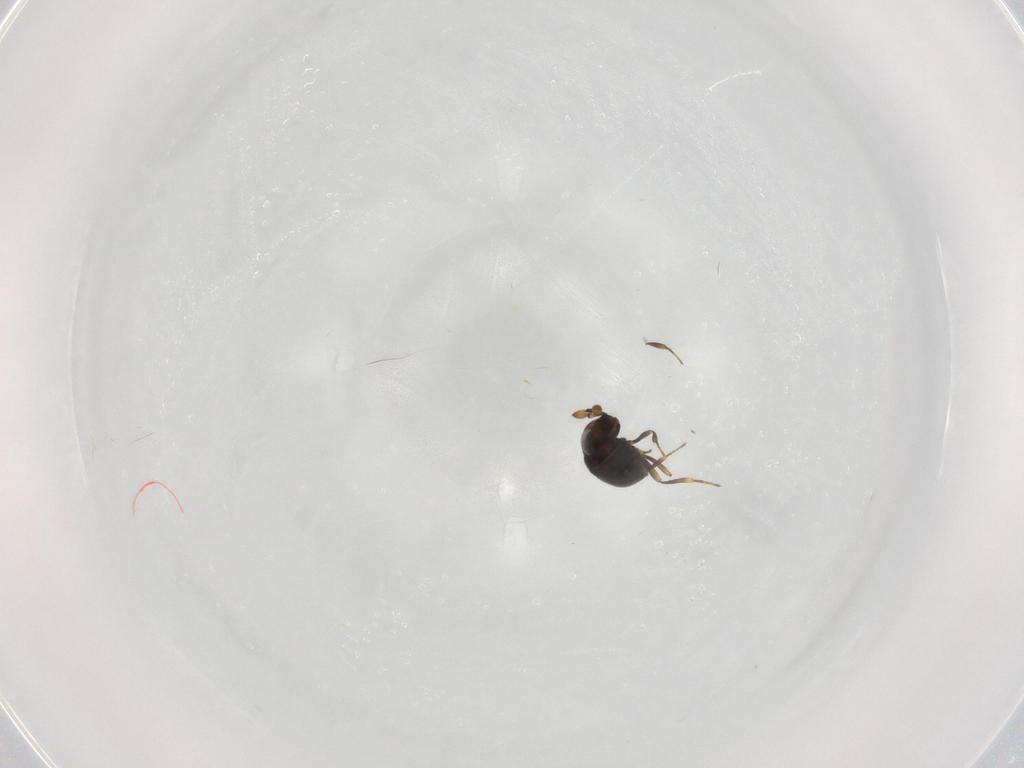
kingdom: Animalia
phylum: Arthropoda
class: Insecta
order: Hymenoptera
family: Scelionidae
